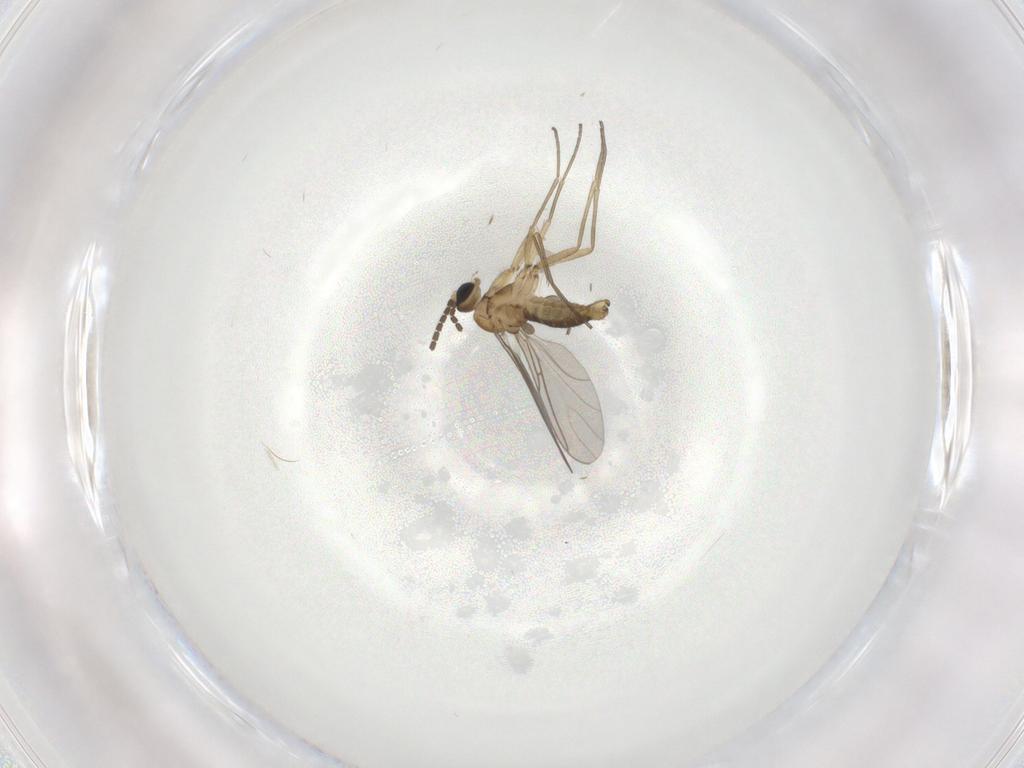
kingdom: Animalia
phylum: Arthropoda
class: Insecta
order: Diptera
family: Sciaridae
